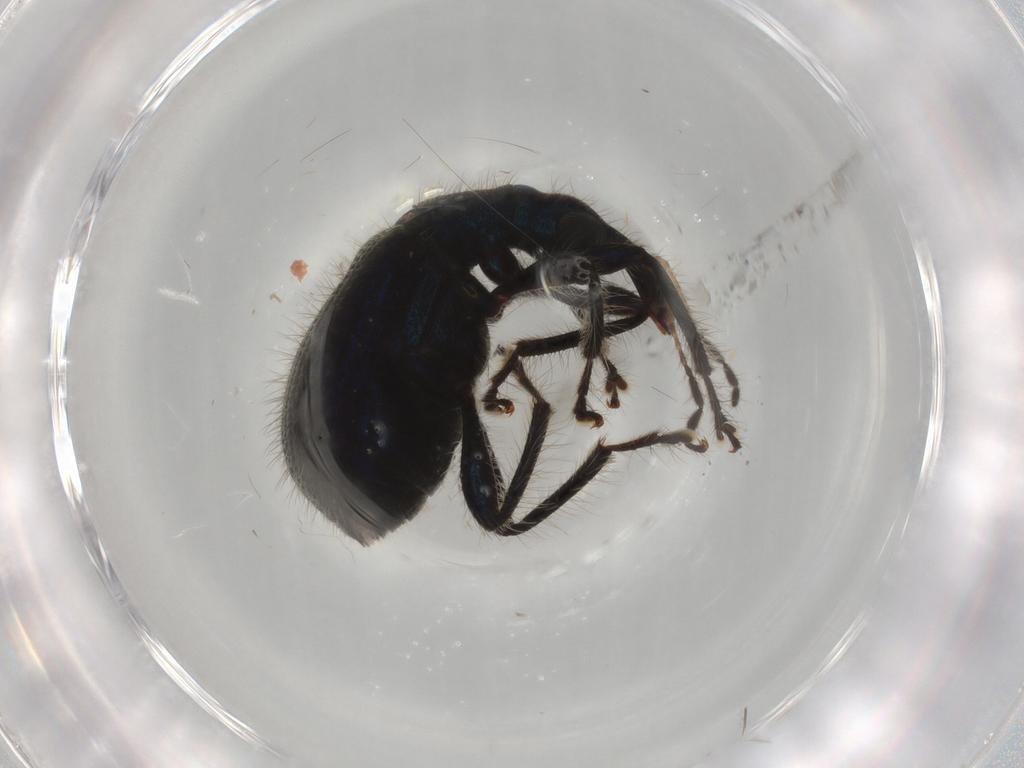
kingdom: Animalia
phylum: Arthropoda
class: Insecta
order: Coleoptera
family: Attelabidae
